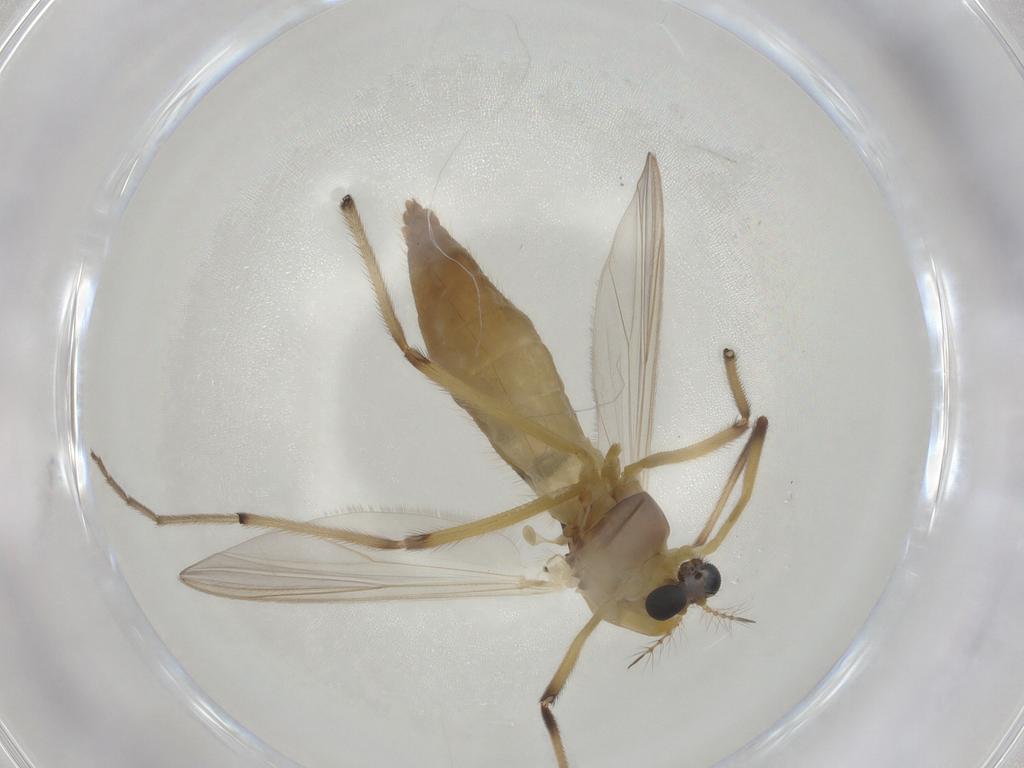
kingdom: Animalia
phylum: Arthropoda
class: Insecta
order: Diptera
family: Chironomidae
